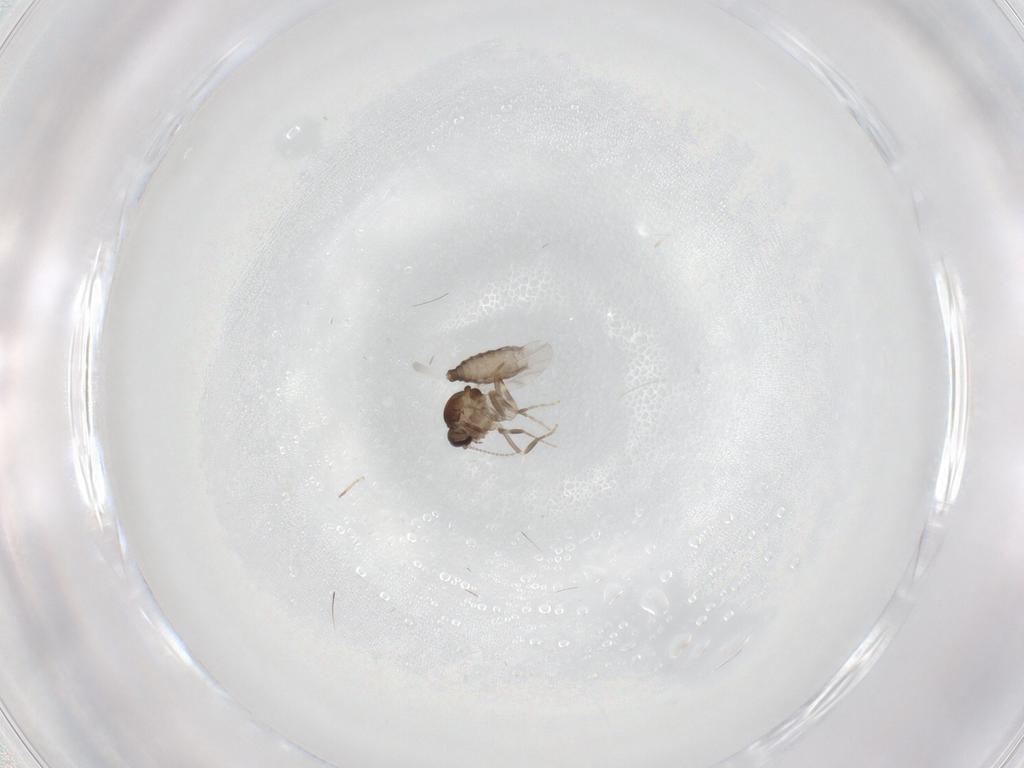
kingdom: Animalia
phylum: Arthropoda
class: Insecta
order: Diptera
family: Ceratopogonidae
